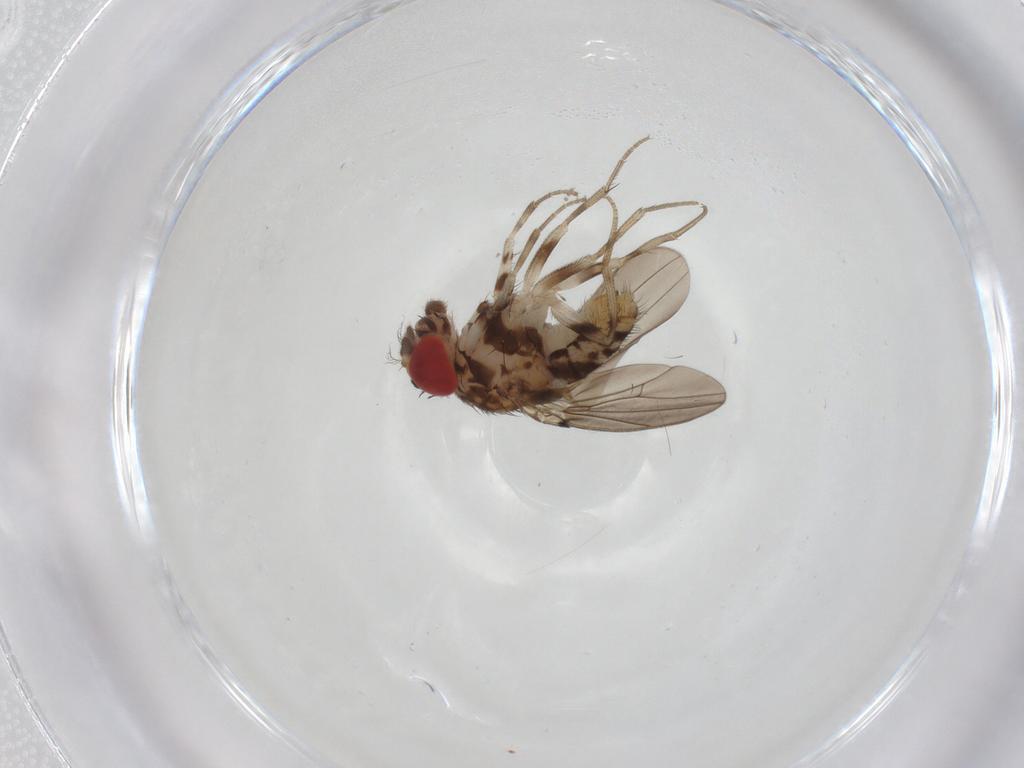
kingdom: Animalia
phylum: Arthropoda
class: Insecta
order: Diptera
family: Drosophilidae
